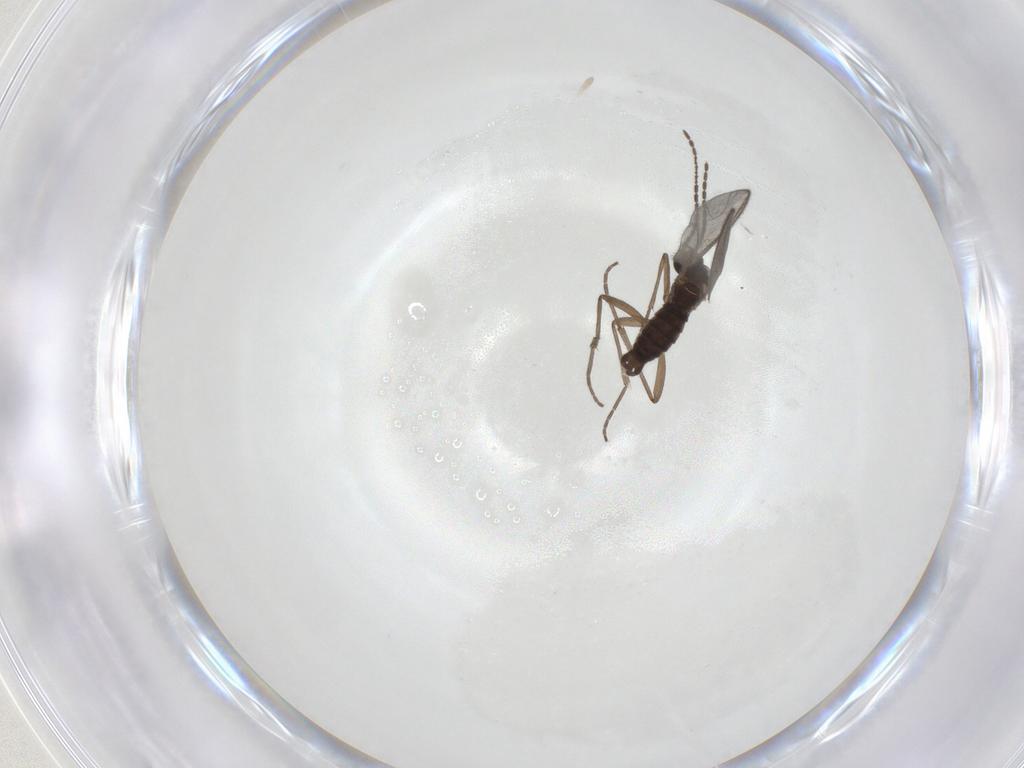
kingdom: Animalia
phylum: Arthropoda
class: Insecta
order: Diptera
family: Sciaridae
